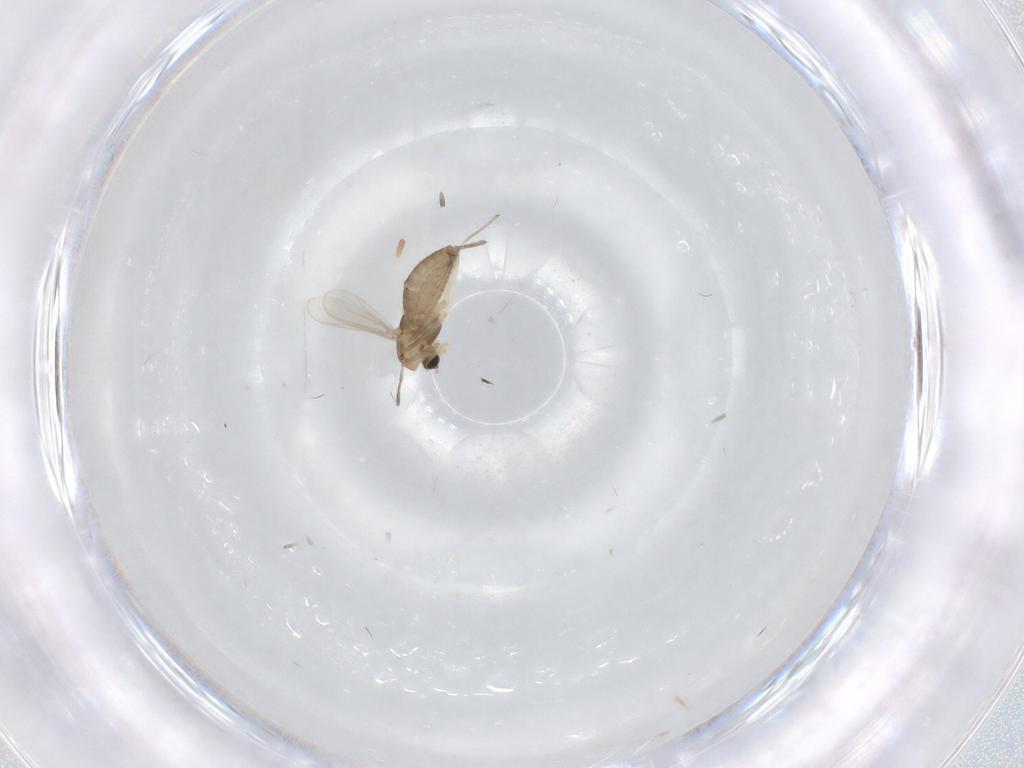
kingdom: Animalia
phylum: Arthropoda
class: Insecta
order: Diptera
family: Chironomidae
